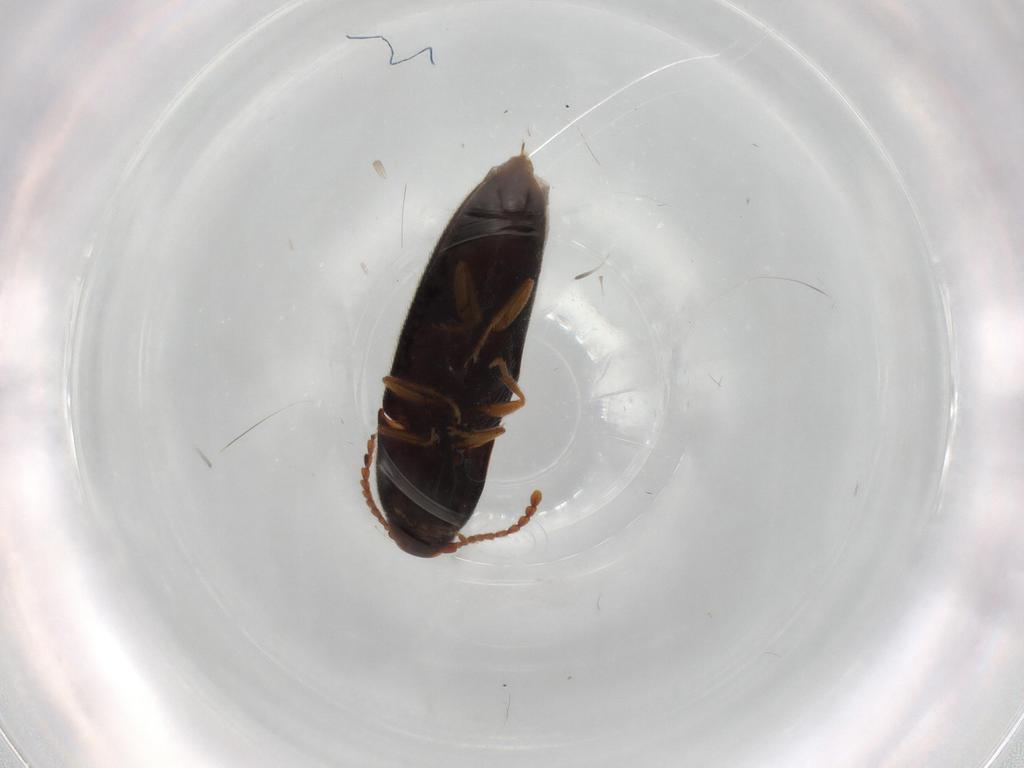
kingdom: Animalia
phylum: Arthropoda
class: Insecta
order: Coleoptera
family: Elateridae
